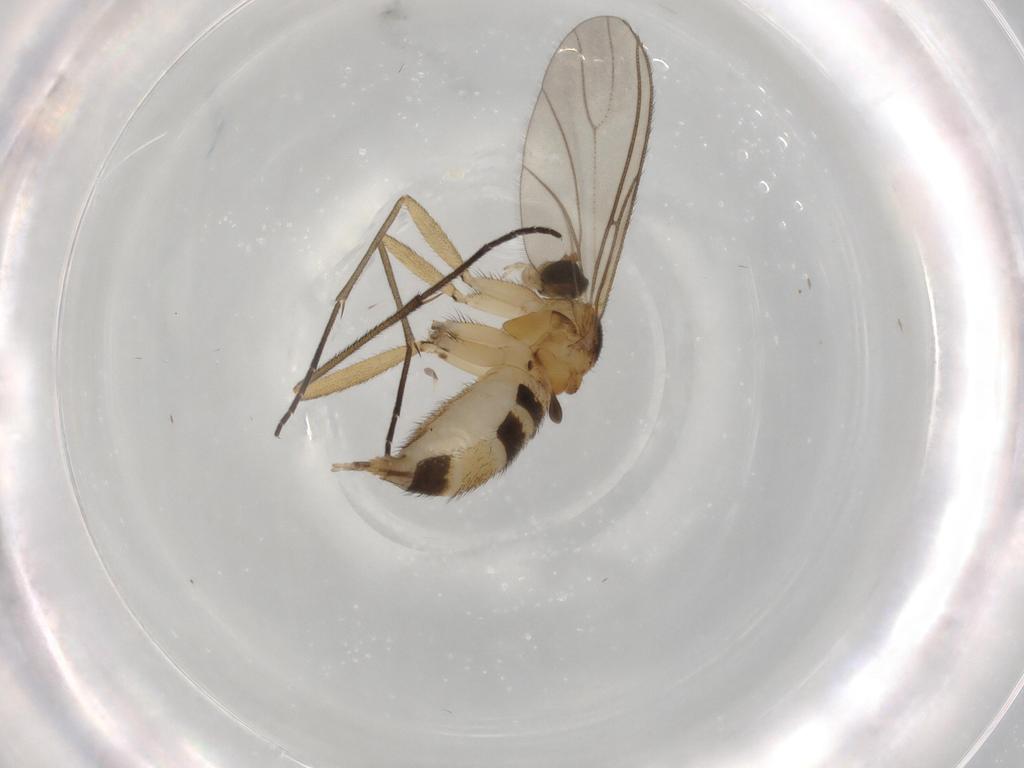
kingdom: Animalia
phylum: Arthropoda
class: Insecta
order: Diptera
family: Sciaridae
